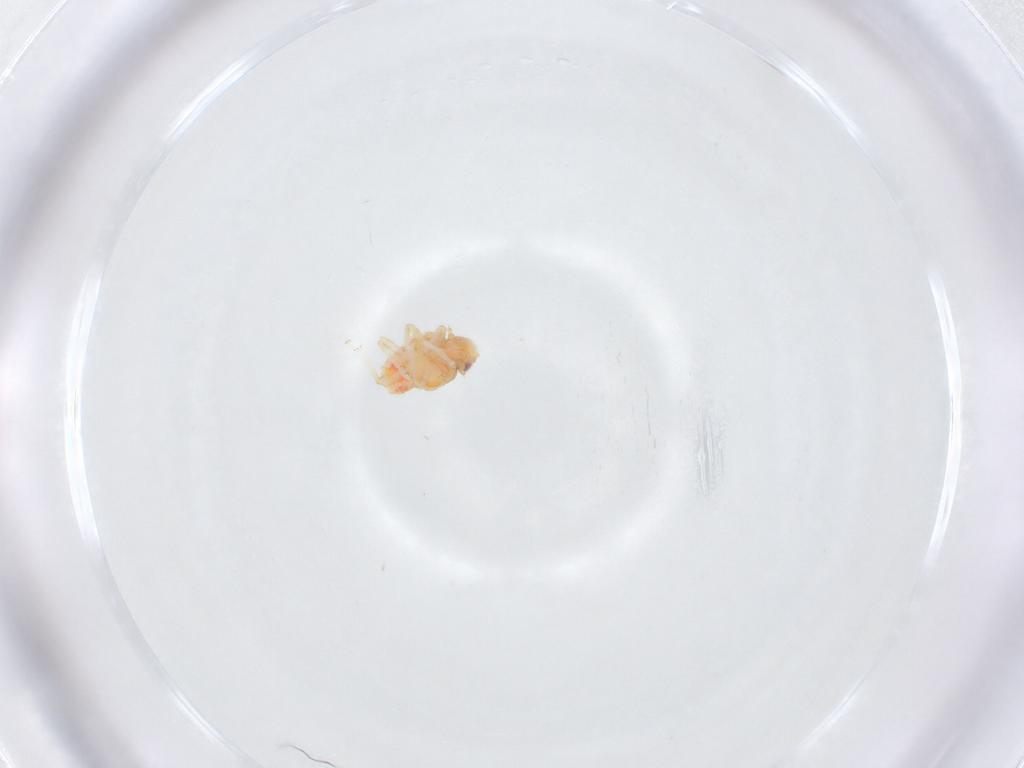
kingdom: Animalia
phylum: Arthropoda
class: Insecta
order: Hemiptera
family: Issidae
